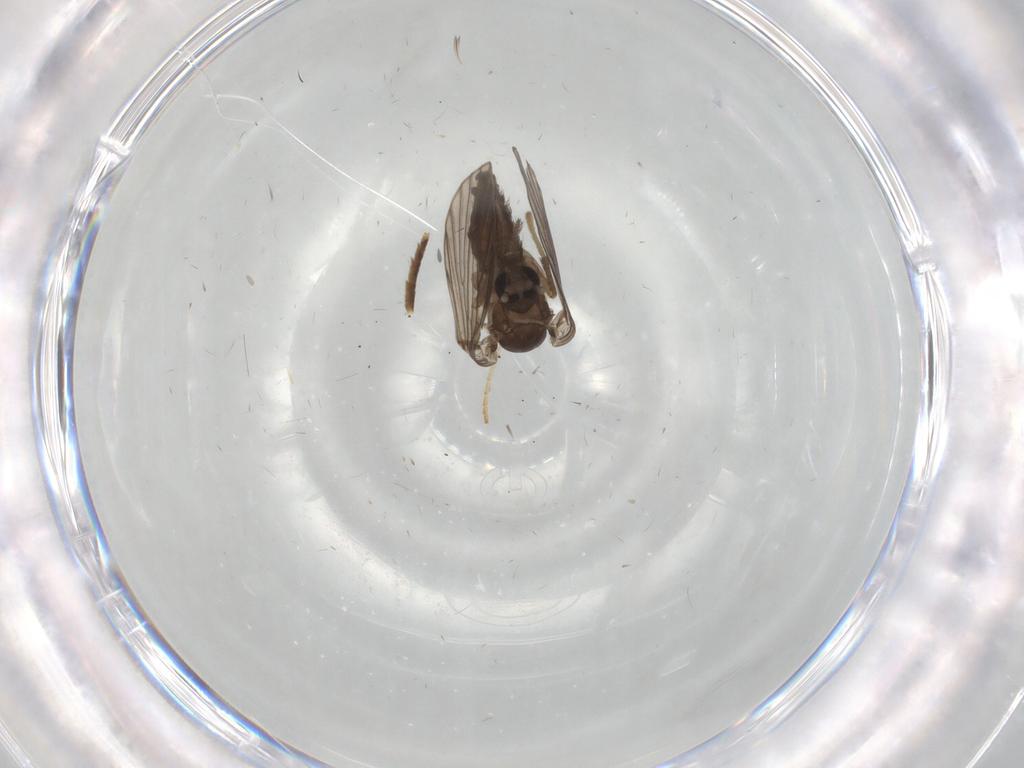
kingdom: Animalia
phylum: Arthropoda
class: Insecta
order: Diptera
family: Psychodidae
